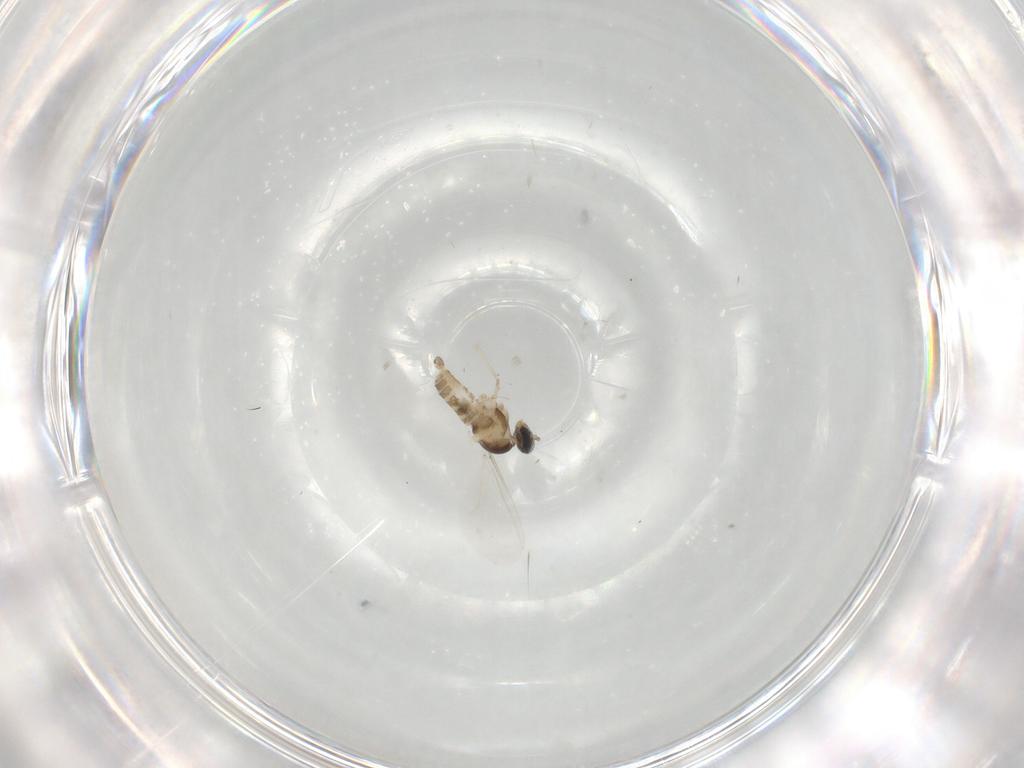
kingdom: Animalia
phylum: Arthropoda
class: Insecta
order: Diptera
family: Cecidomyiidae
